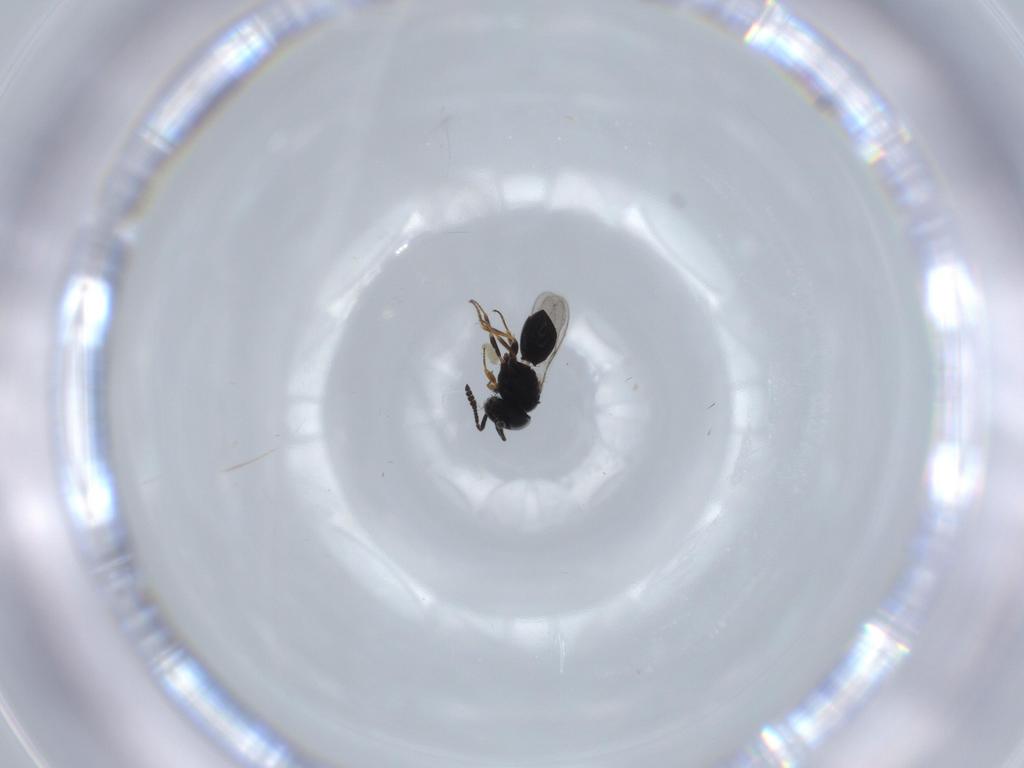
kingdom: Animalia
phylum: Arthropoda
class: Insecta
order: Hymenoptera
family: Scelionidae
